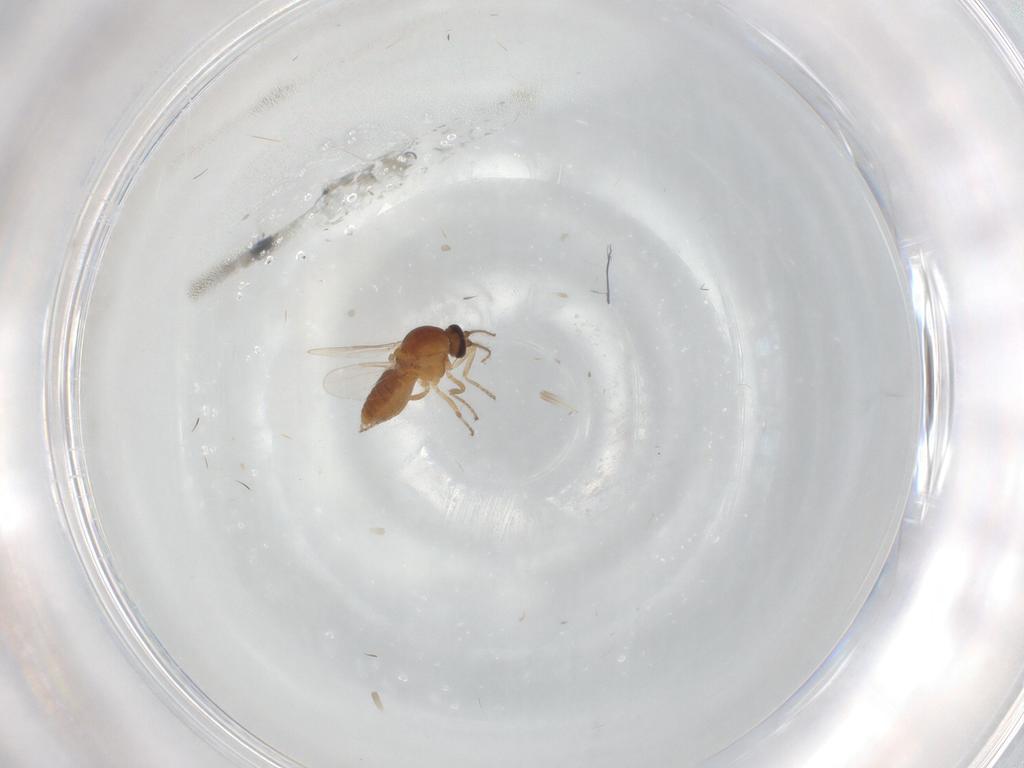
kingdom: Animalia
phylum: Arthropoda
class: Insecta
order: Diptera
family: Ceratopogonidae
